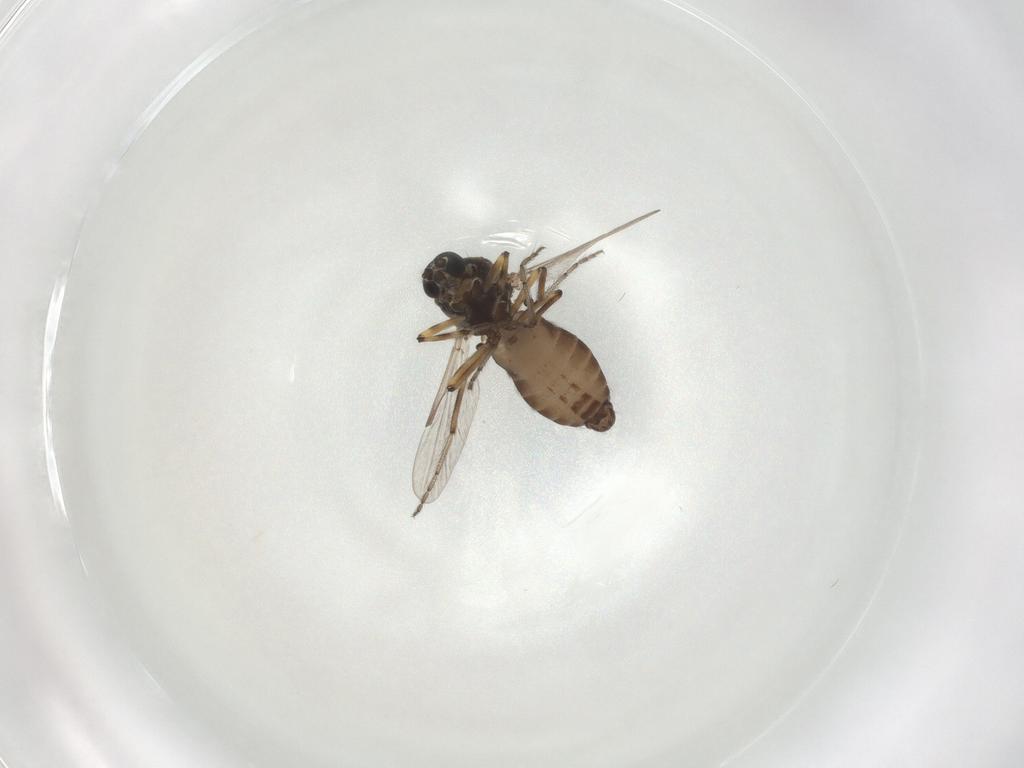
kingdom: Animalia
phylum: Arthropoda
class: Insecta
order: Diptera
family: Ceratopogonidae
